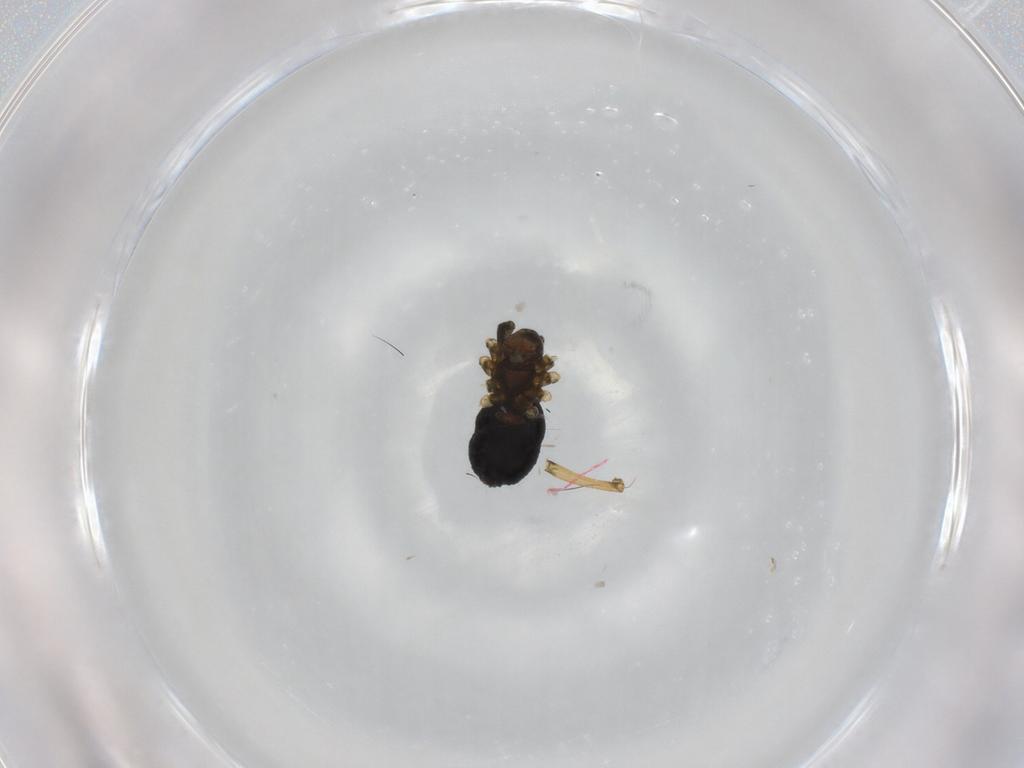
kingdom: Animalia
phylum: Arthropoda
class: Arachnida
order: Araneae
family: Linyphiidae
